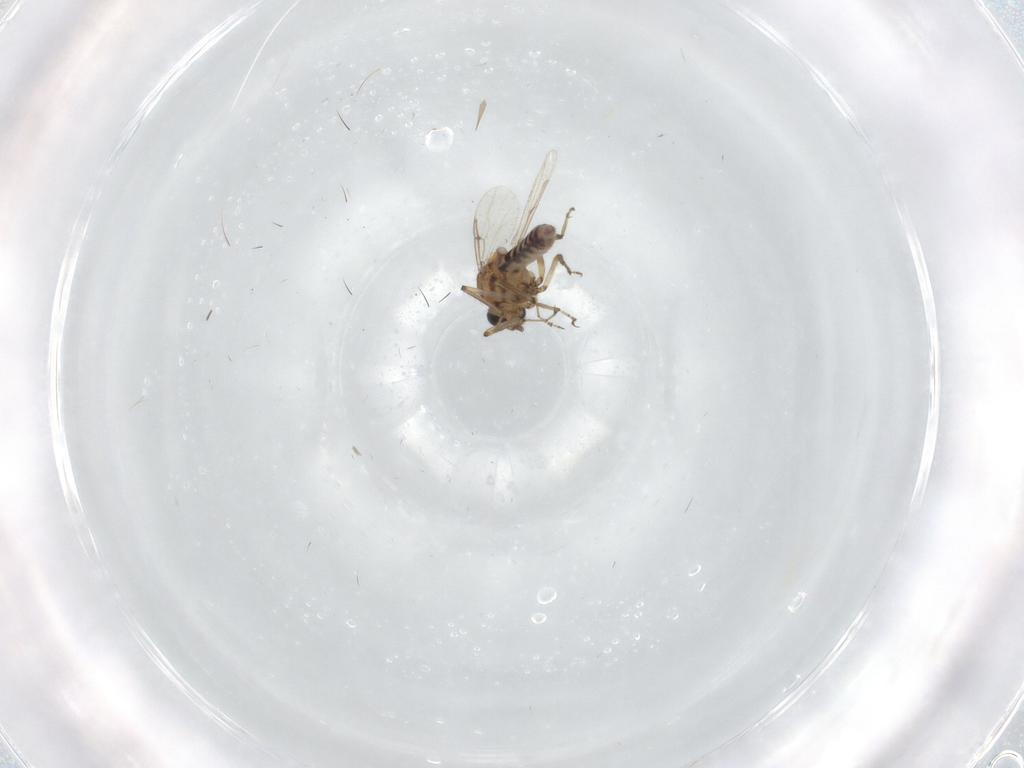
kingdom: Animalia
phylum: Arthropoda
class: Insecta
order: Diptera
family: Ceratopogonidae
